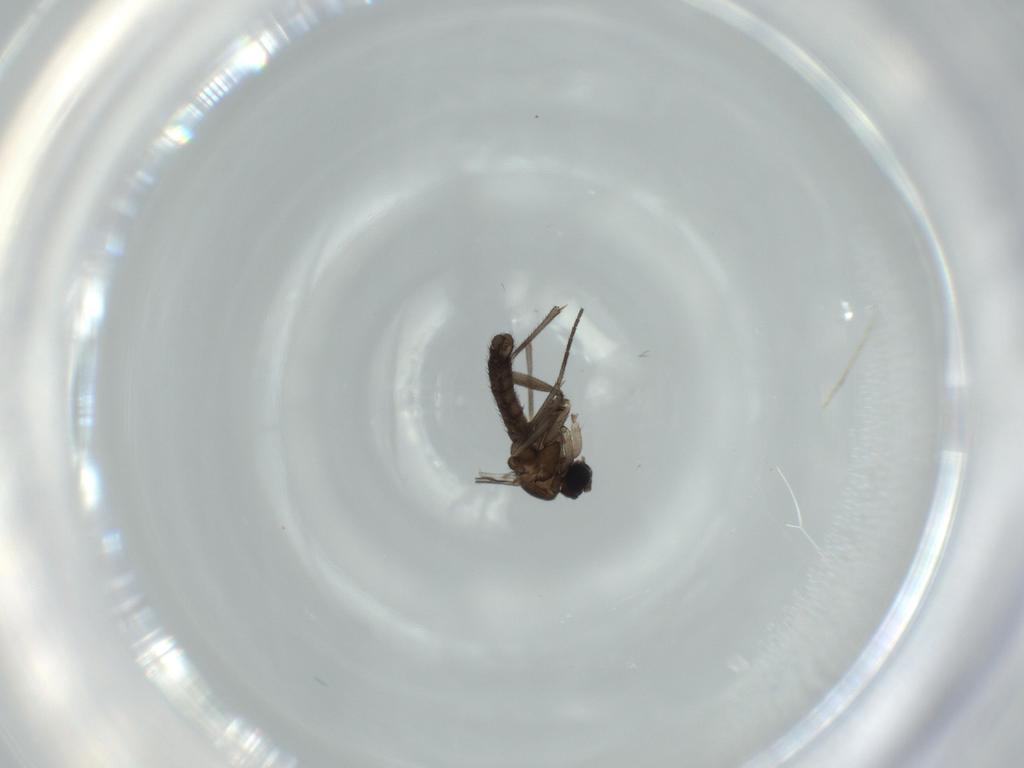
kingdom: Animalia
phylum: Arthropoda
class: Insecta
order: Diptera
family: Sciaridae
